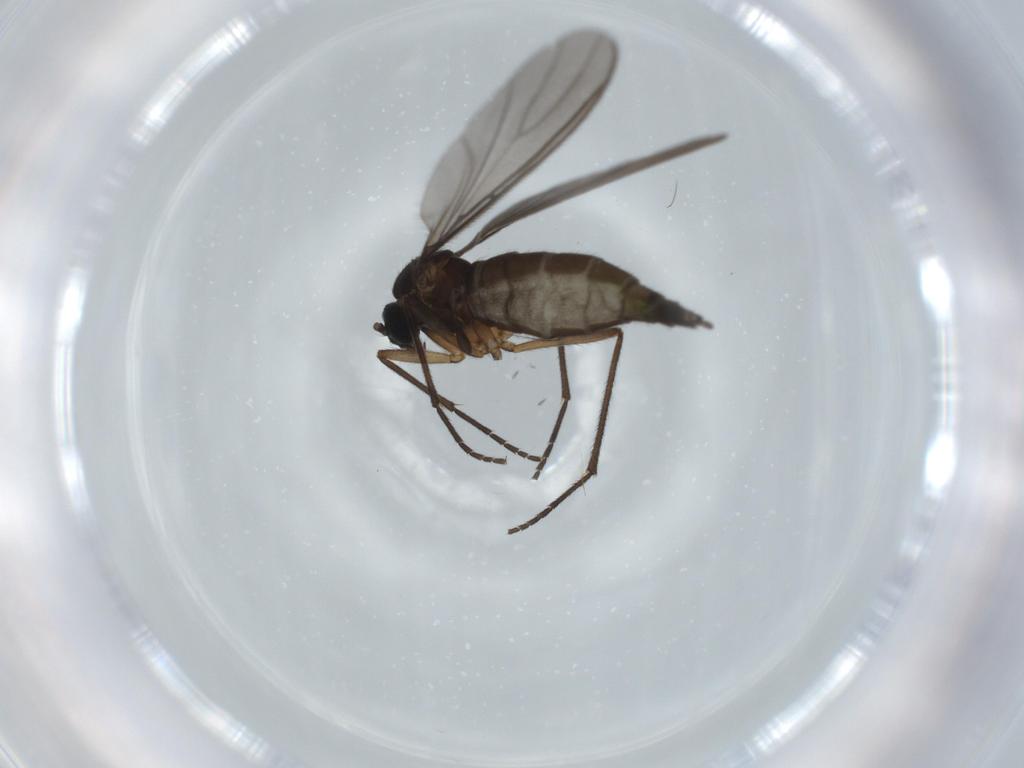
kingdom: Animalia
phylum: Arthropoda
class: Insecta
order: Diptera
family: Sciaridae
